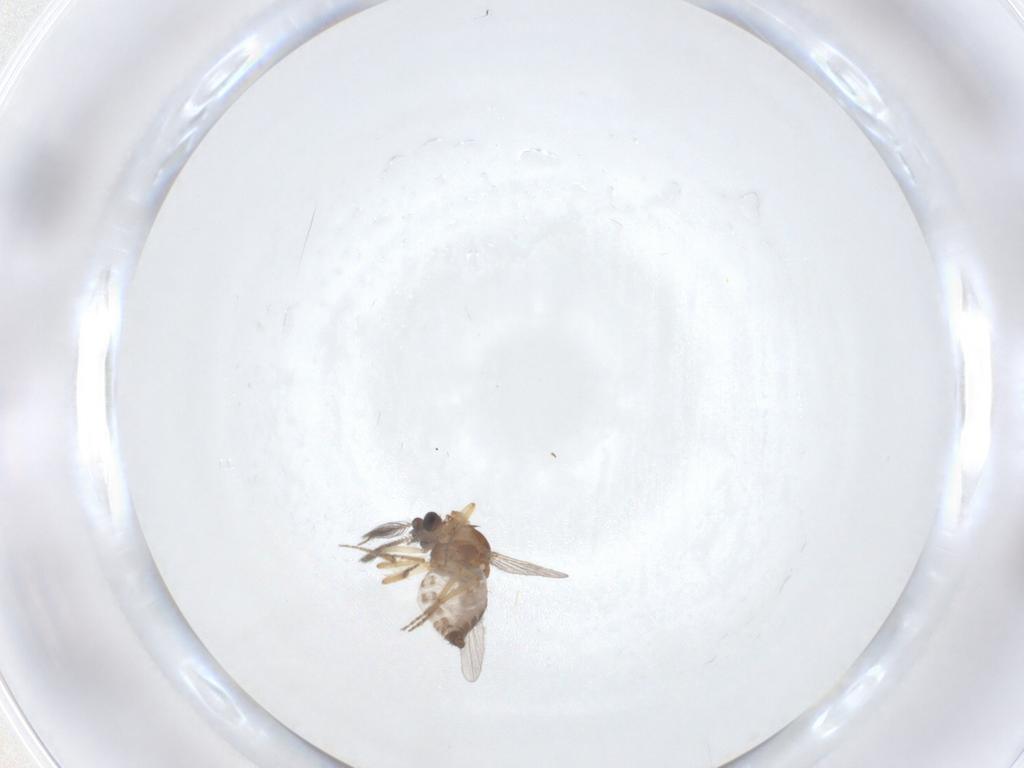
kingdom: Animalia
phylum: Arthropoda
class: Insecta
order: Diptera
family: Ceratopogonidae
